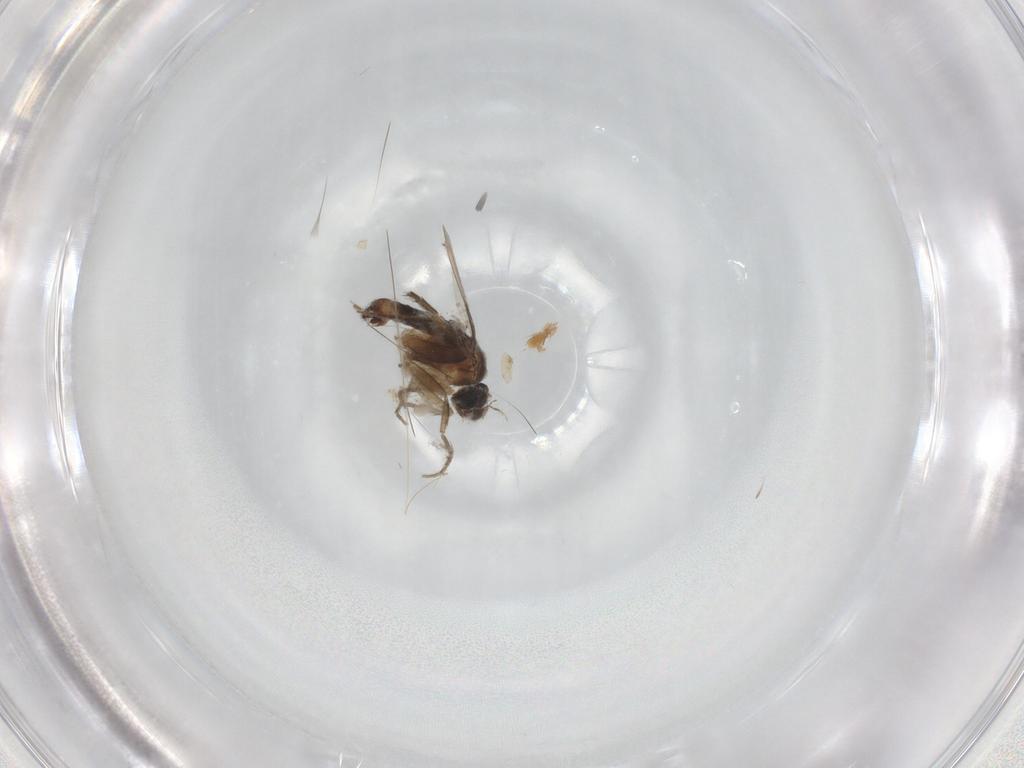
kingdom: Animalia
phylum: Arthropoda
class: Insecta
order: Diptera
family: Phoridae
